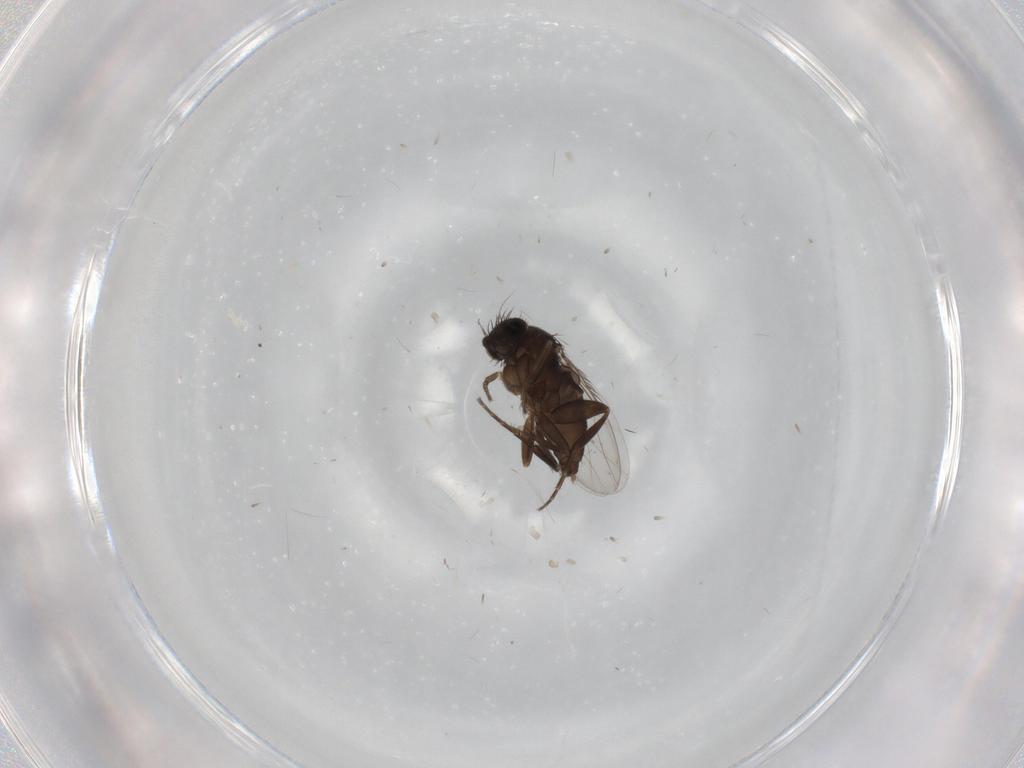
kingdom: Animalia
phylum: Arthropoda
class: Insecta
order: Diptera
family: Phoridae
